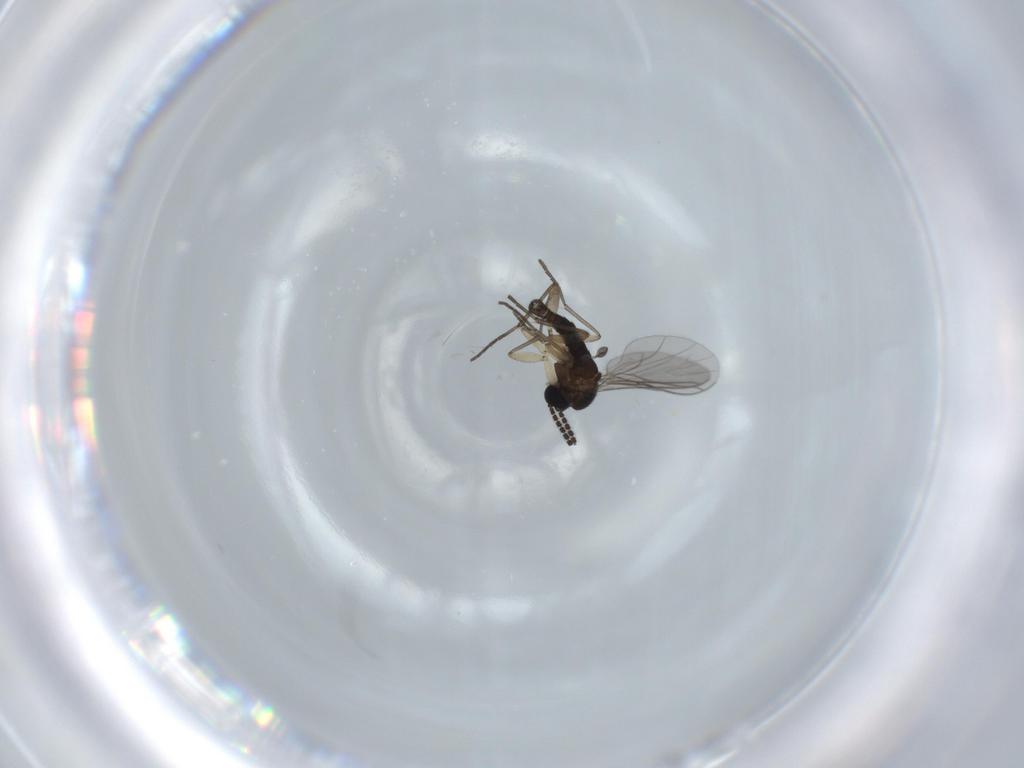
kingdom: Animalia
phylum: Arthropoda
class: Insecta
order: Diptera
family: Sciaridae
